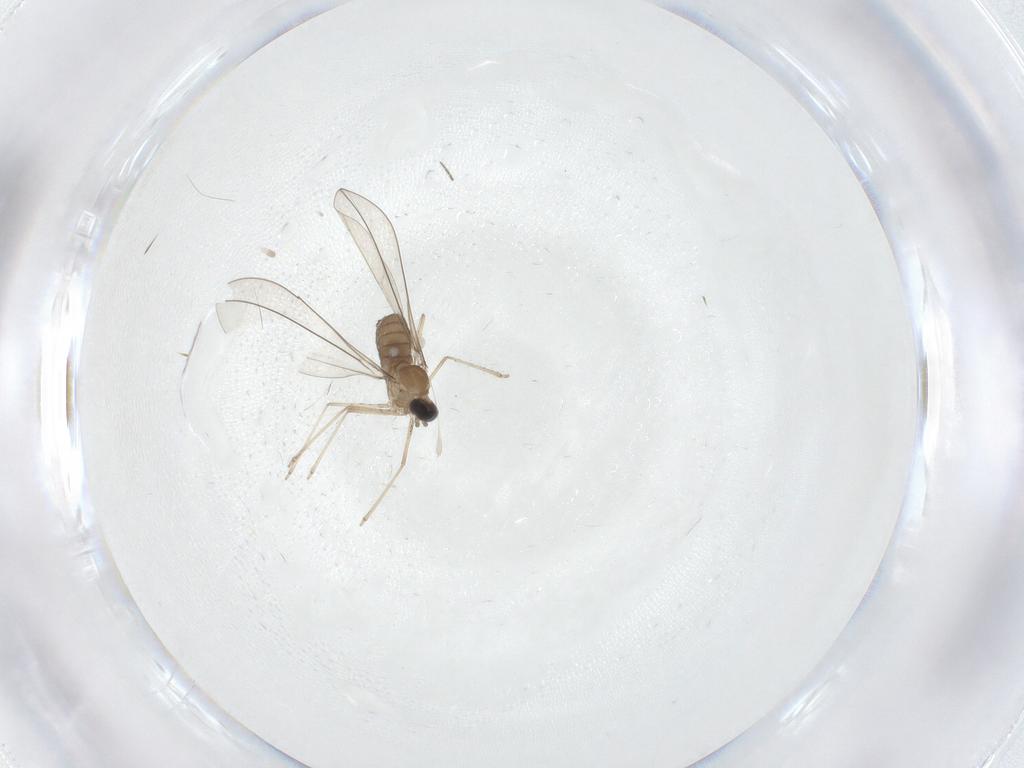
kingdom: Animalia
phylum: Arthropoda
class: Insecta
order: Diptera
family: Cecidomyiidae
